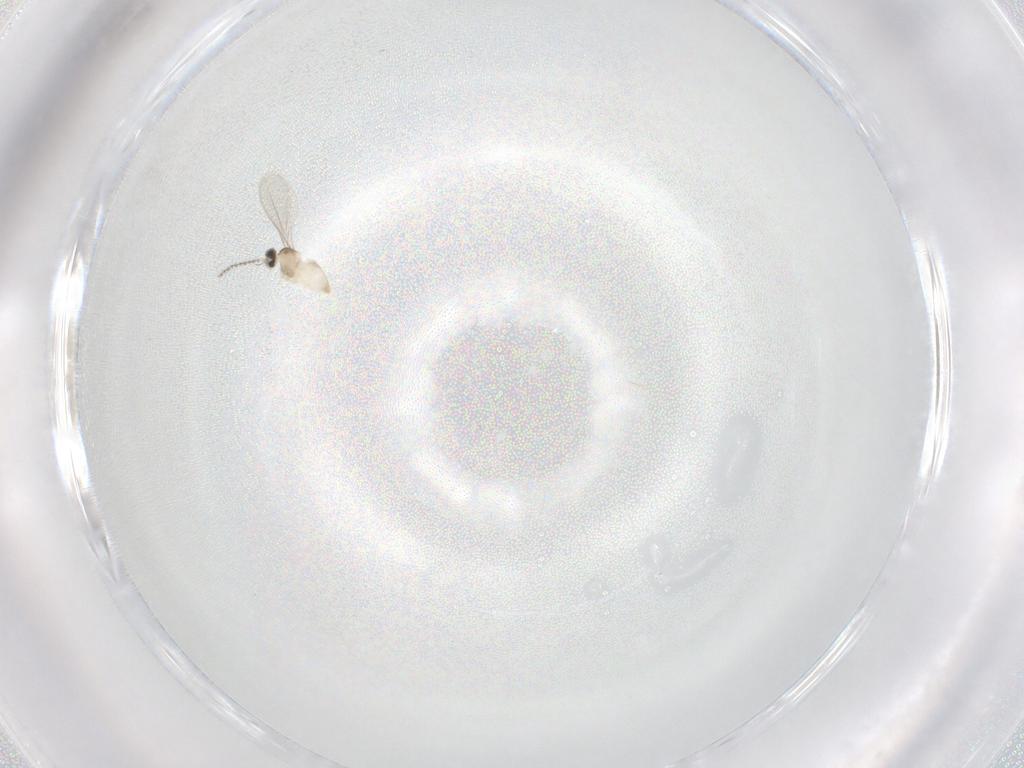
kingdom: Animalia
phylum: Arthropoda
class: Insecta
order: Diptera
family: Cecidomyiidae
